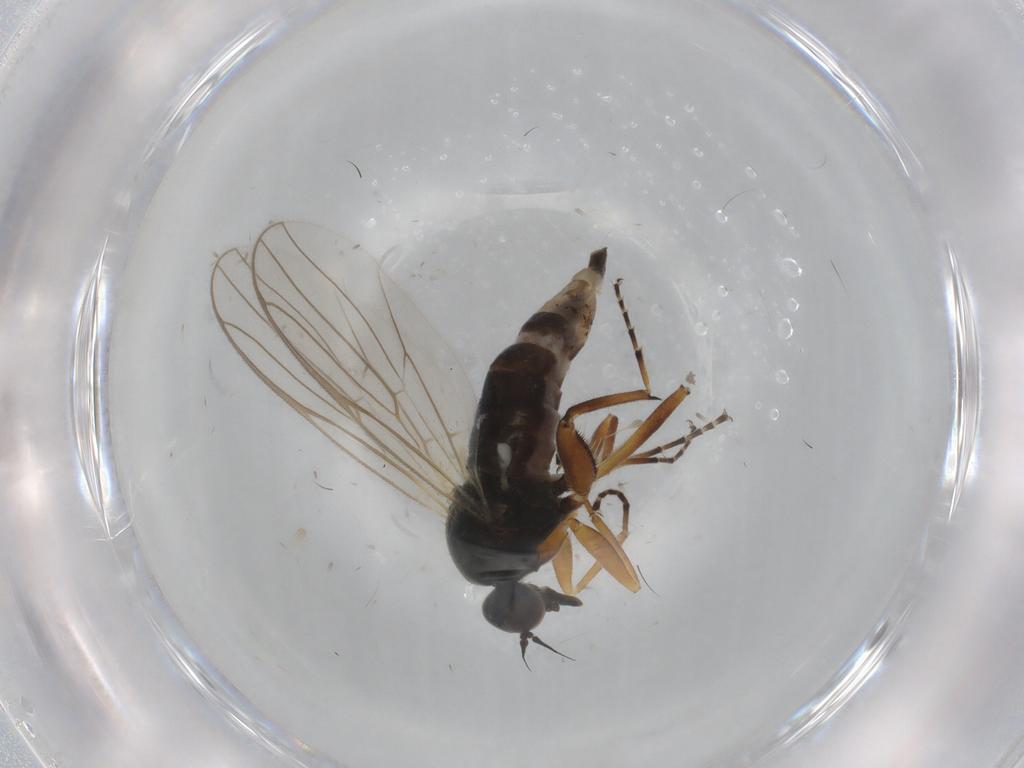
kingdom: Animalia
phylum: Arthropoda
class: Insecta
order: Diptera
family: Hybotidae
